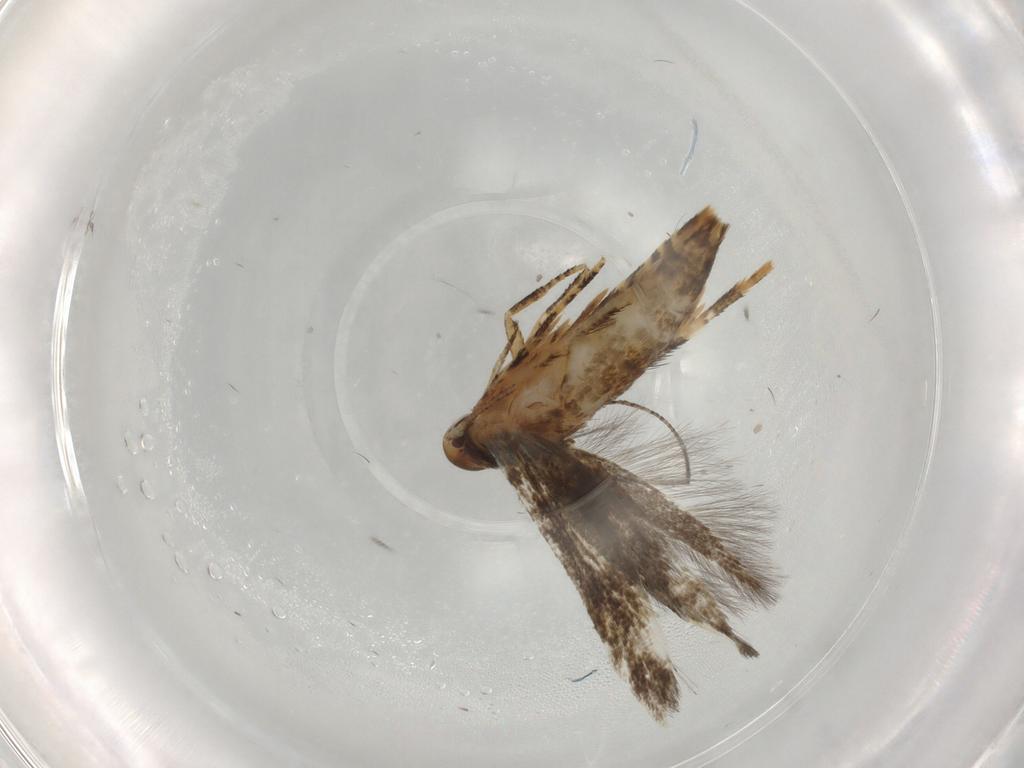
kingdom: Animalia
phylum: Arthropoda
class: Insecta
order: Lepidoptera
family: Momphidae
